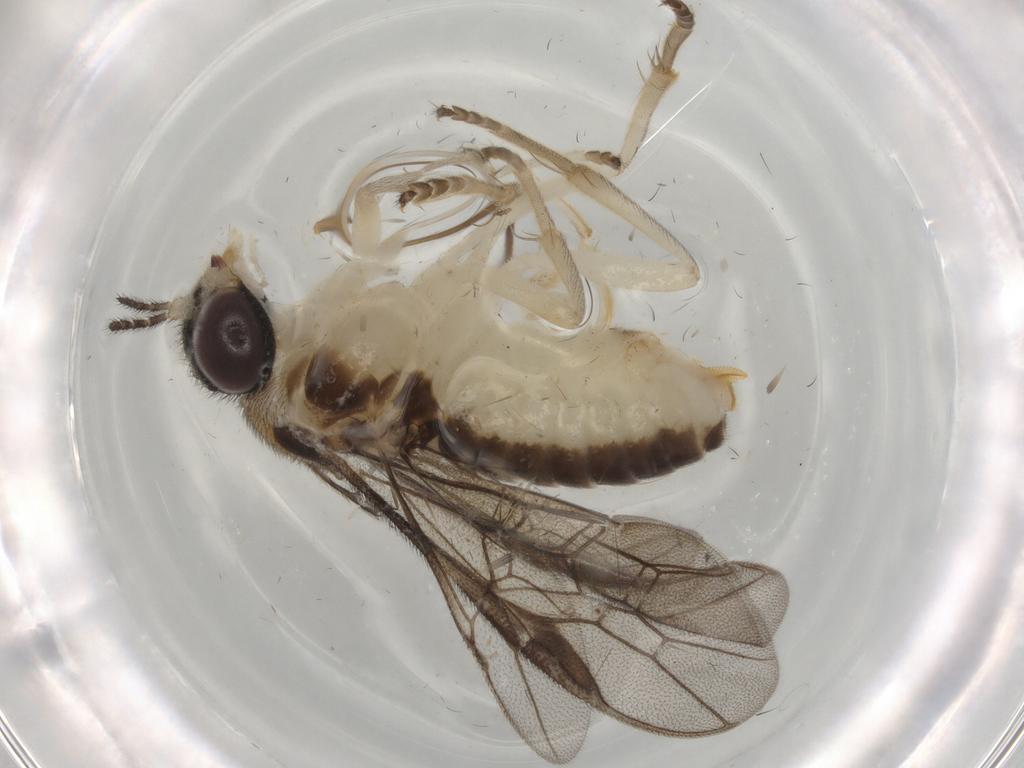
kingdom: Animalia
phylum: Arthropoda
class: Insecta
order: Hymenoptera
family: Pergidae
